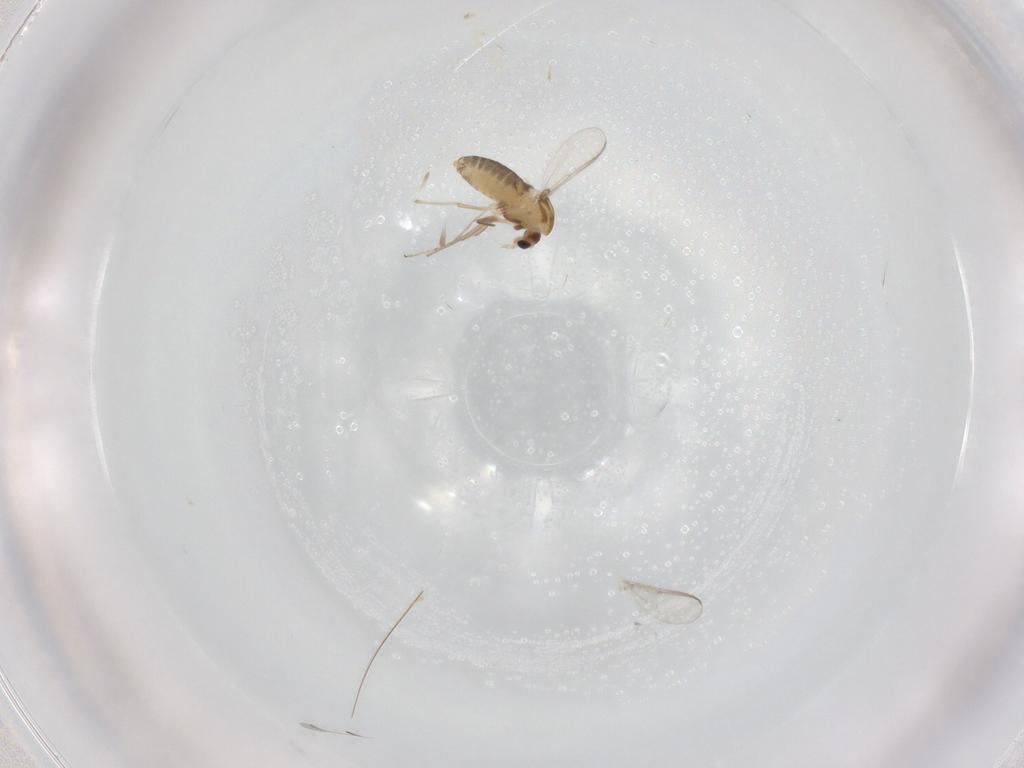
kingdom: Animalia
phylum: Arthropoda
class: Insecta
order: Diptera
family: Chironomidae
